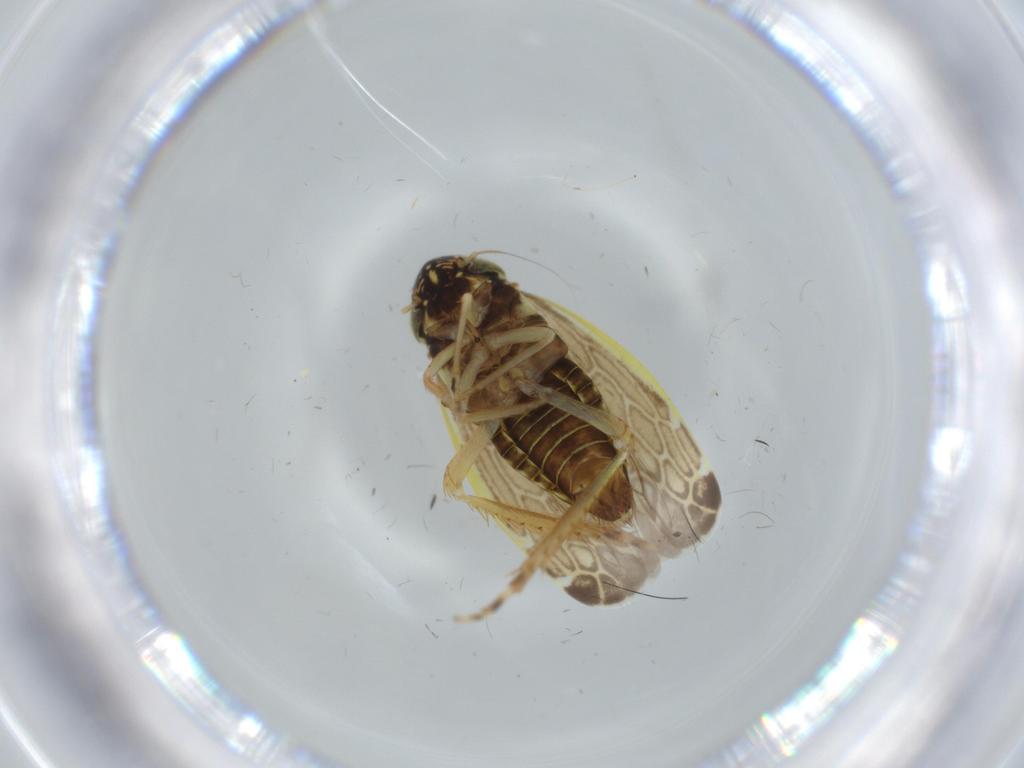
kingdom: Animalia
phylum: Arthropoda
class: Insecta
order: Hemiptera
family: Cicadellidae
